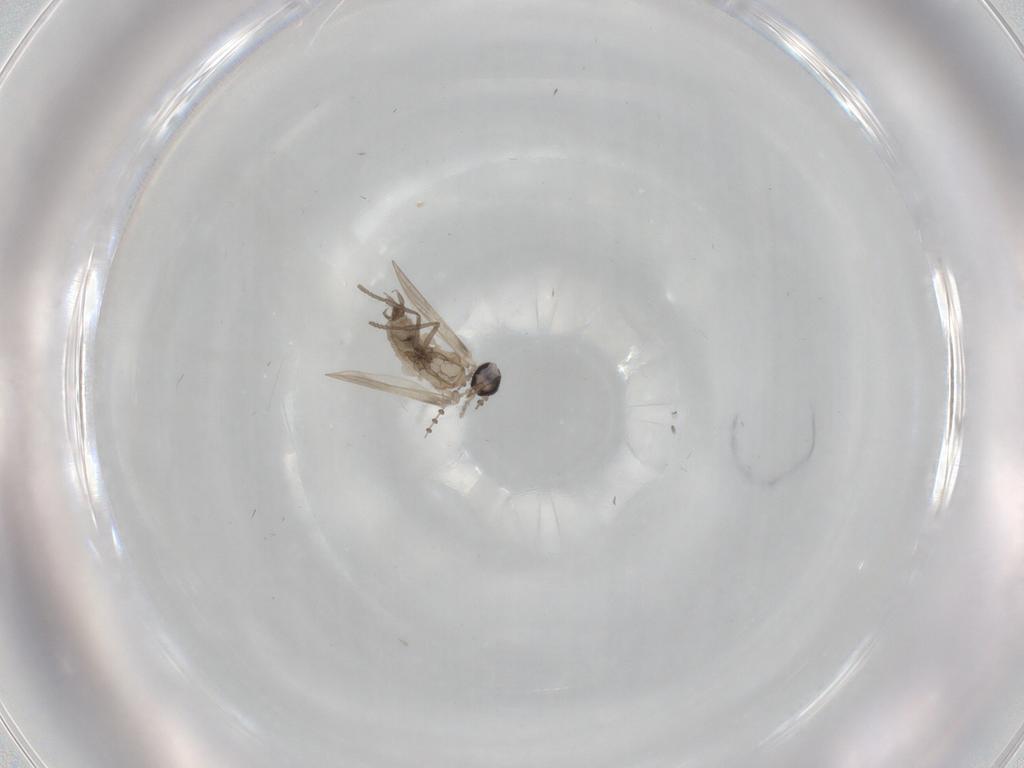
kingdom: Animalia
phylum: Arthropoda
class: Insecta
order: Diptera
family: Psychodidae
